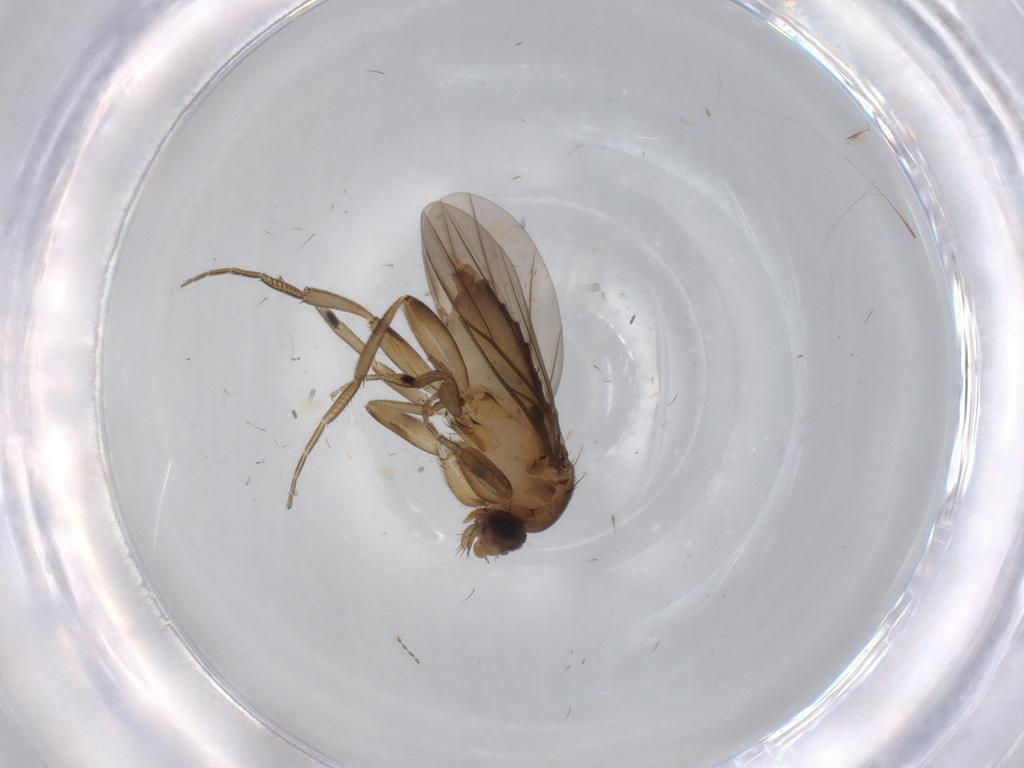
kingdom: Animalia
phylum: Arthropoda
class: Insecta
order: Diptera
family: Phoridae
